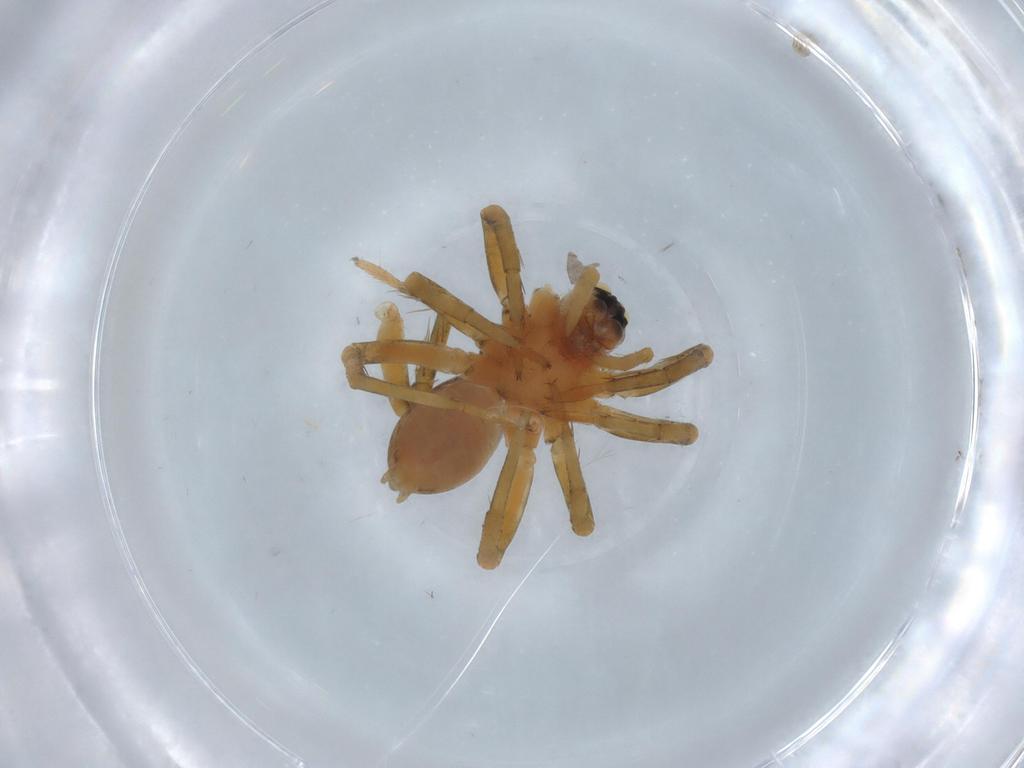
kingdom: Animalia
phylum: Arthropoda
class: Arachnida
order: Araneae
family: Lycosidae
